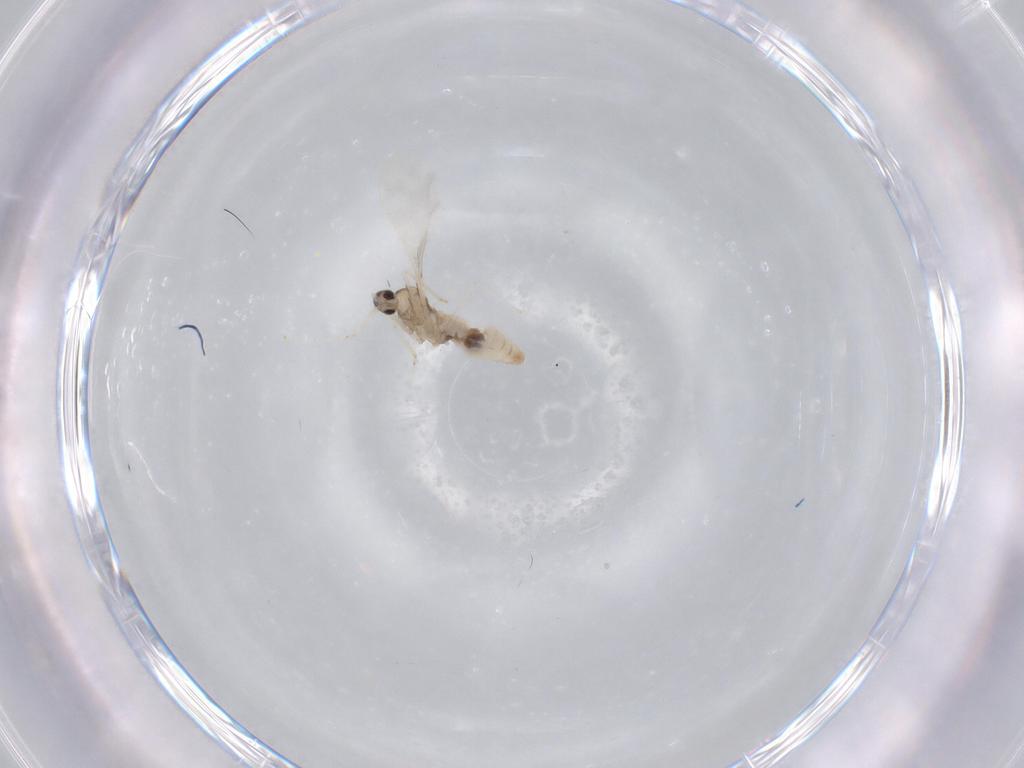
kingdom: Animalia
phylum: Arthropoda
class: Insecta
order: Diptera
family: Cecidomyiidae
